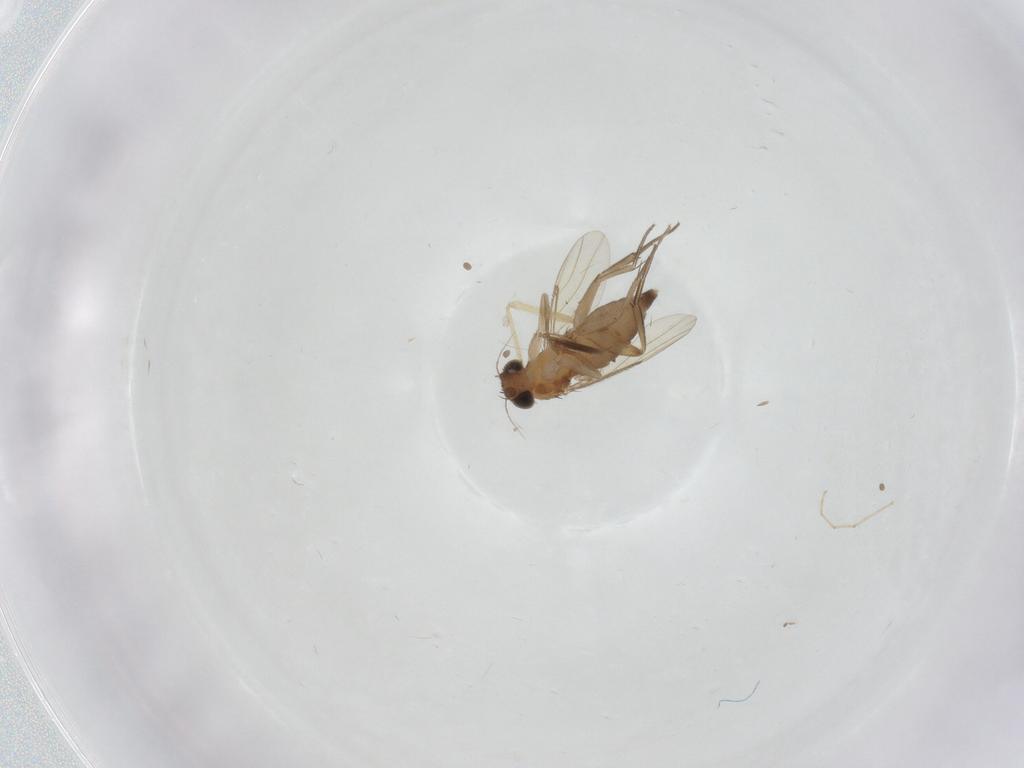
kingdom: Animalia
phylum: Arthropoda
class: Insecta
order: Diptera
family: Phoridae
